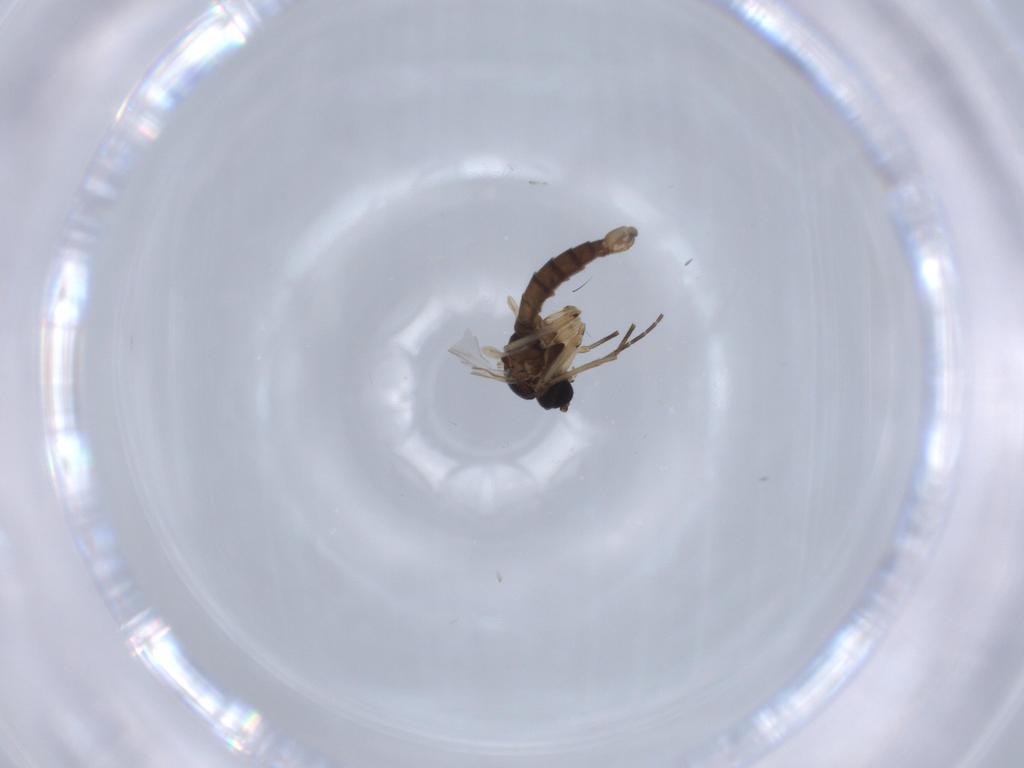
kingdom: Animalia
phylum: Arthropoda
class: Insecta
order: Diptera
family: Sciaridae
